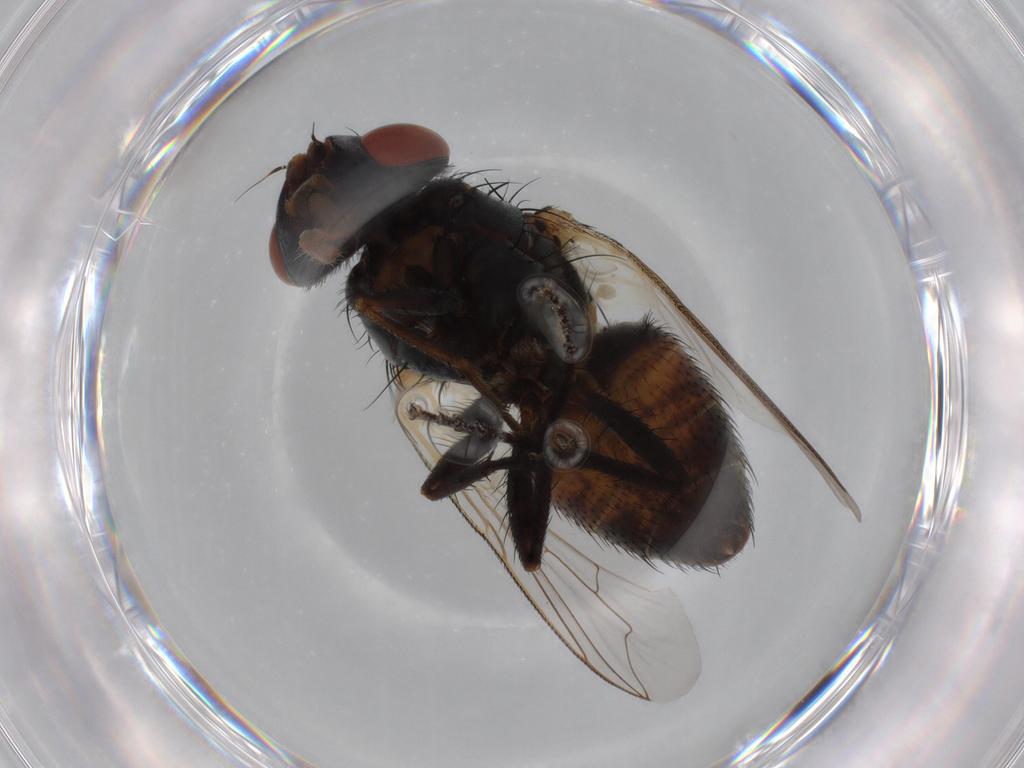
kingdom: Animalia
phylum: Arthropoda
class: Insecta
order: Diptera
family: Sarcophagidae
